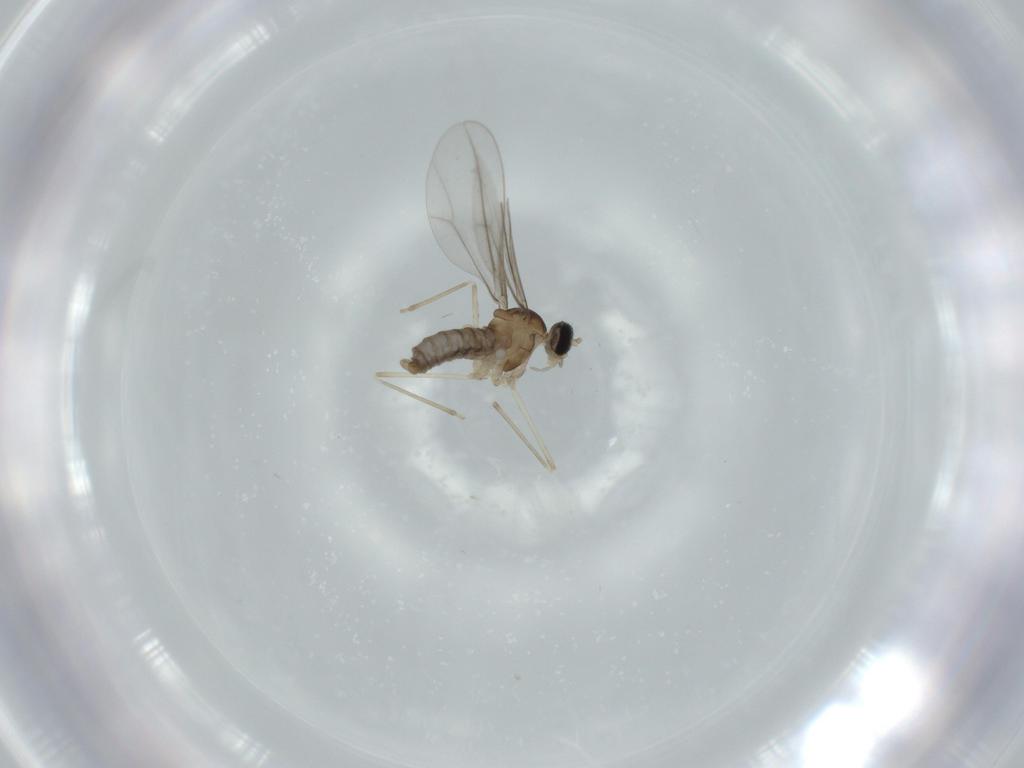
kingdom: Animalia
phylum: Arthropoda
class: Insecta
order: Diptera
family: Cecidomyiidae
